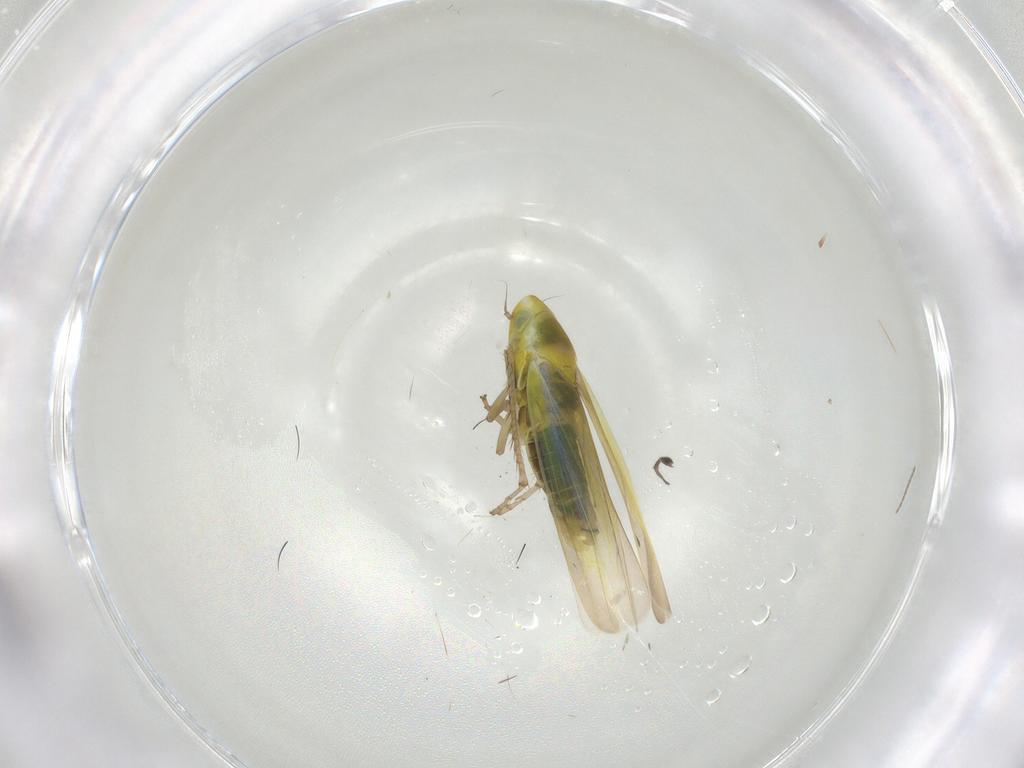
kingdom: Animalia
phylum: Arthropoda
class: Insecta
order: Hemiptera
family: Cicadellidae
